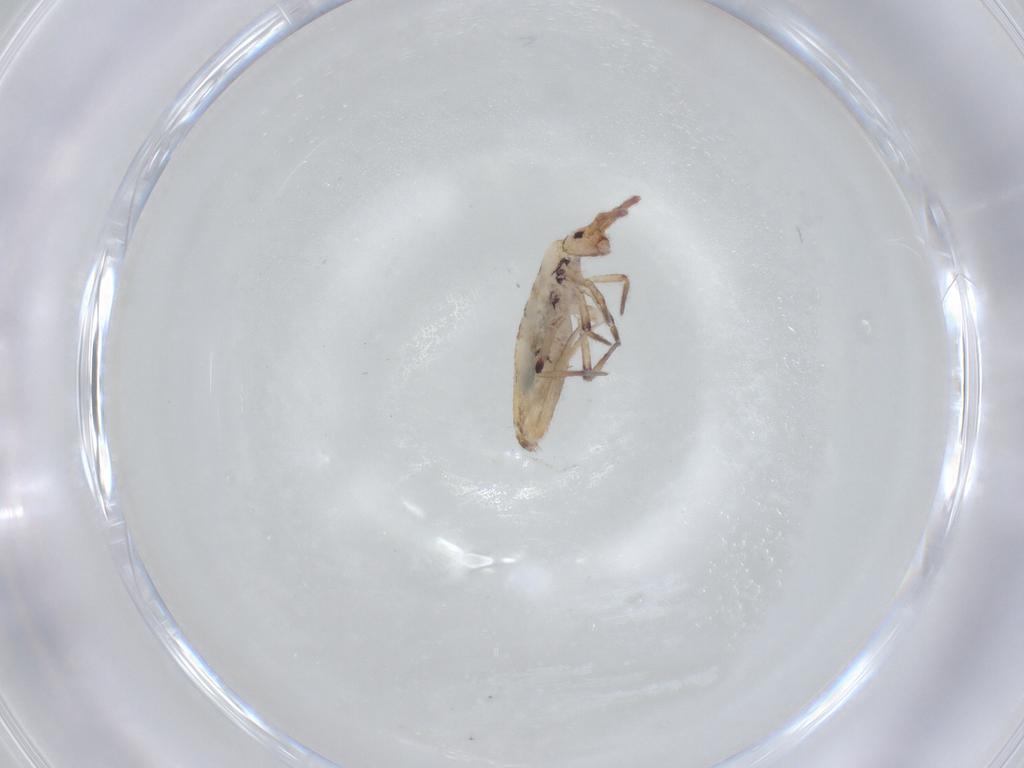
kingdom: Animalia
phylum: Arthropoda
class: Collembola
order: Entomobryomorpha
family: Entomobryidae
